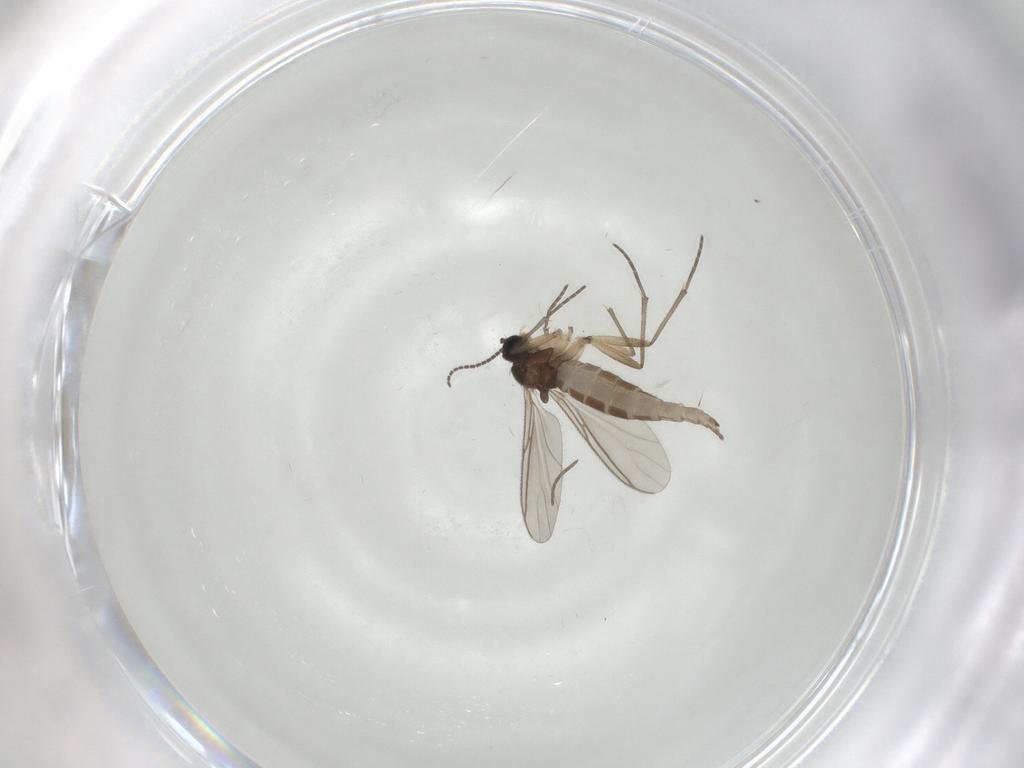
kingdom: Animalia
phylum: Arthropoda
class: Insecta
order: Diptera
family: Sciaridae
